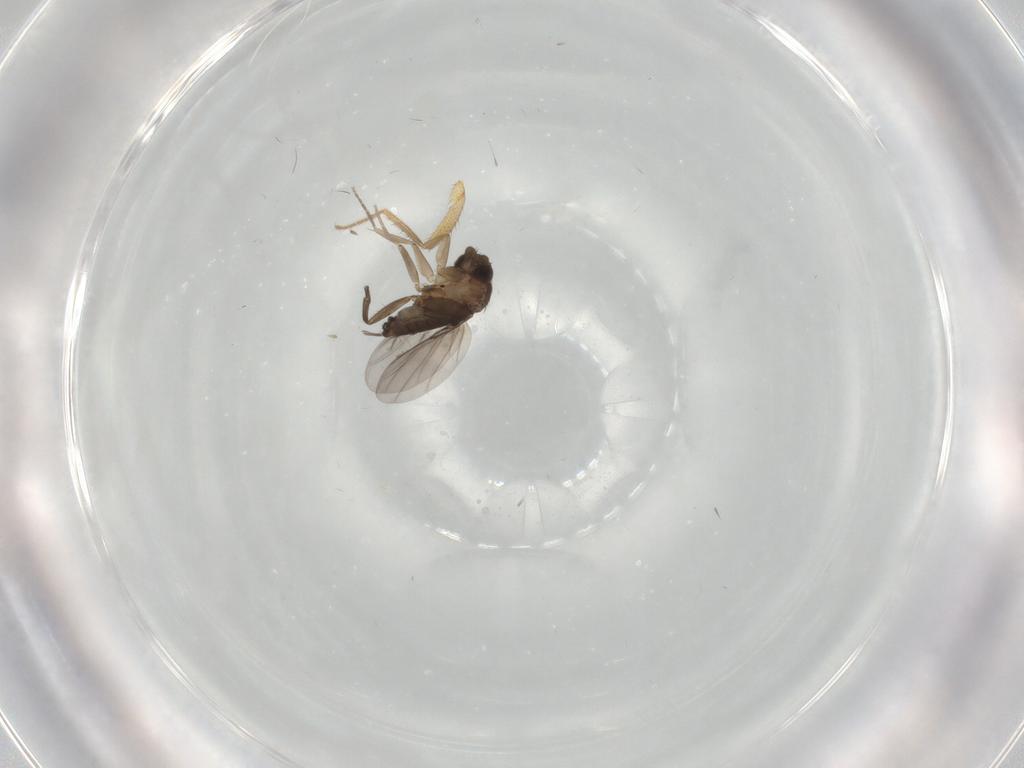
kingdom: Animalia
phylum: Arthropoda
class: Insecta
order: Diptera
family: Phoridae
